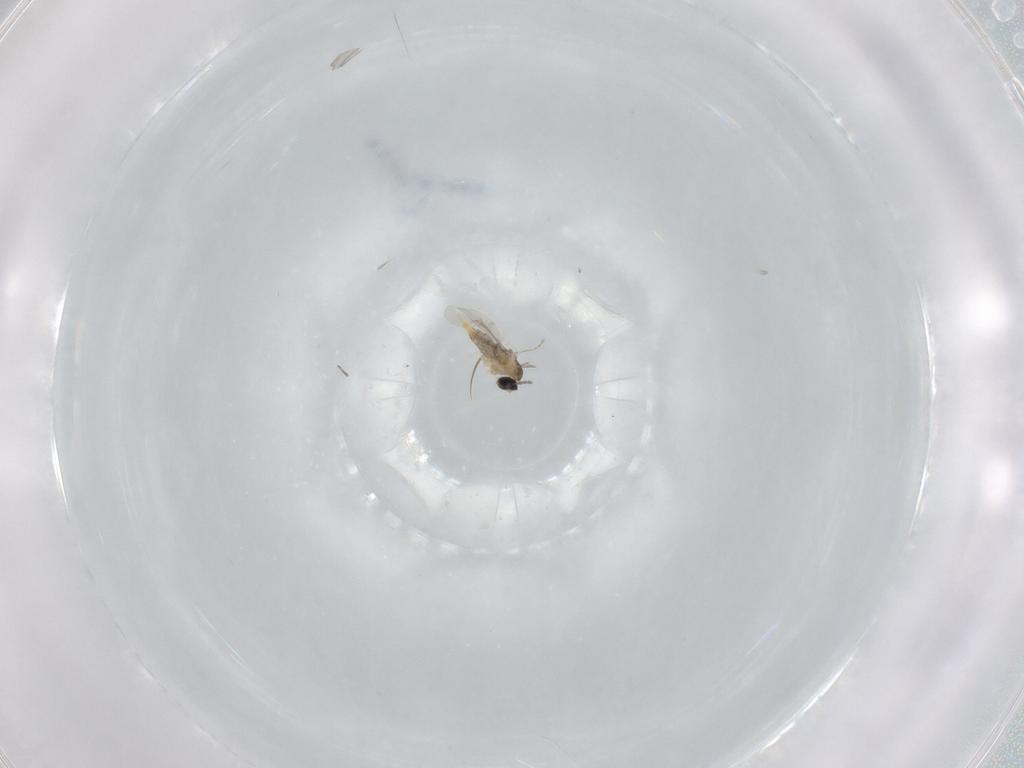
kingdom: Animalia
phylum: Arthropoda
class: Insecta
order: Diptera
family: Cecidomyiidae
